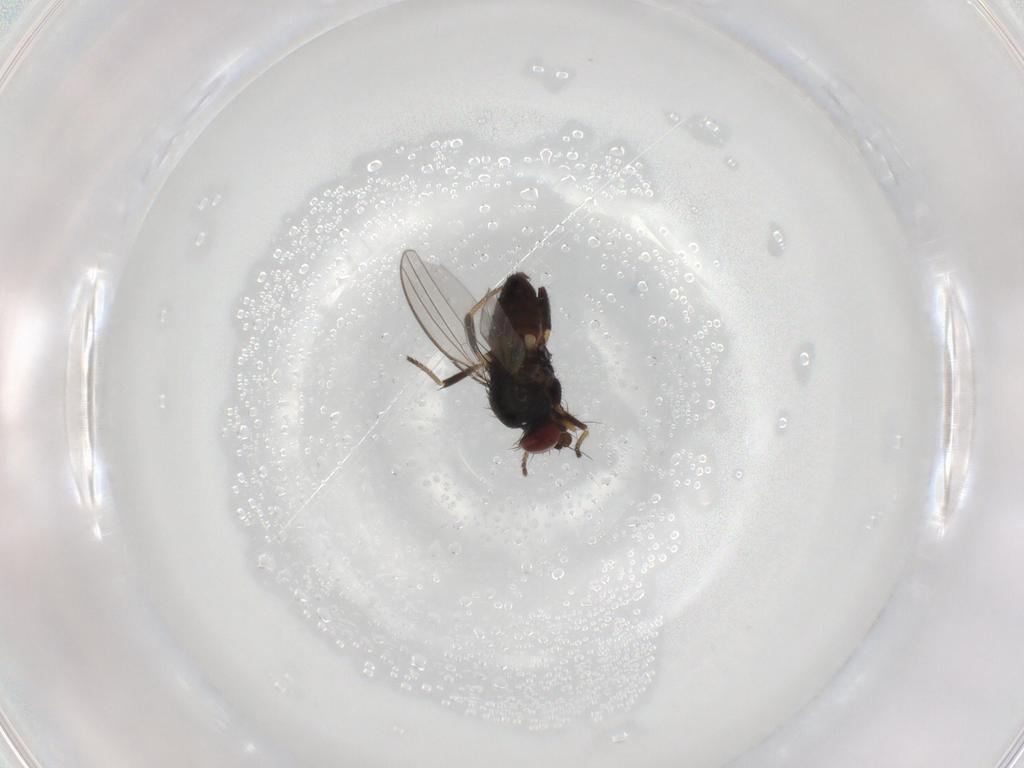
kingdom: Animalia
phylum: Arthropoda
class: Insecta
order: Diptera
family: Milichiidae
